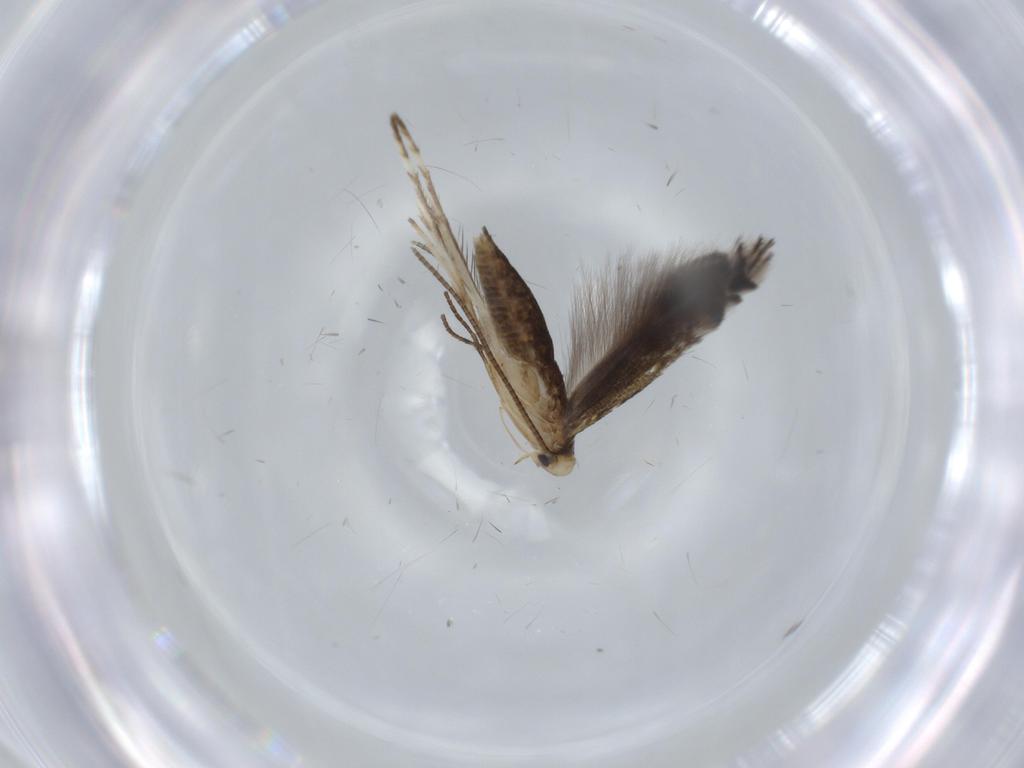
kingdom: Animalia
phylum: Arthropoda
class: Insecta
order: Lepidoptera
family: Gracillariidae
